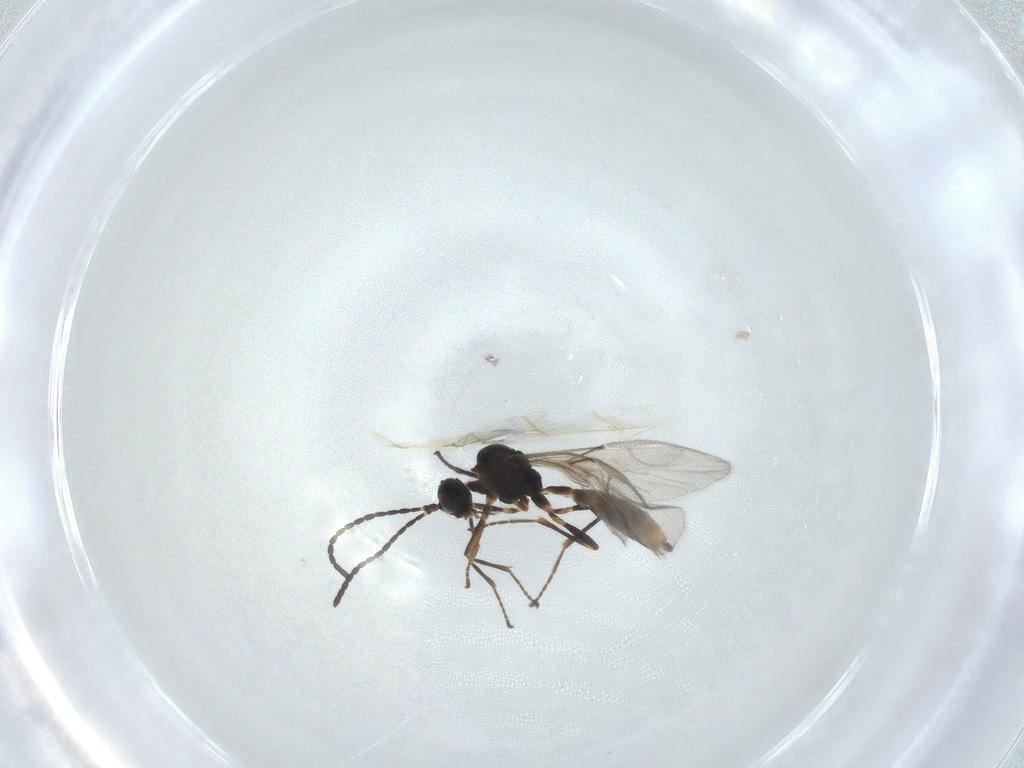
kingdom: Animalia
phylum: Arthropoda
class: Insecta
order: Hymenoptera
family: Braconidae
